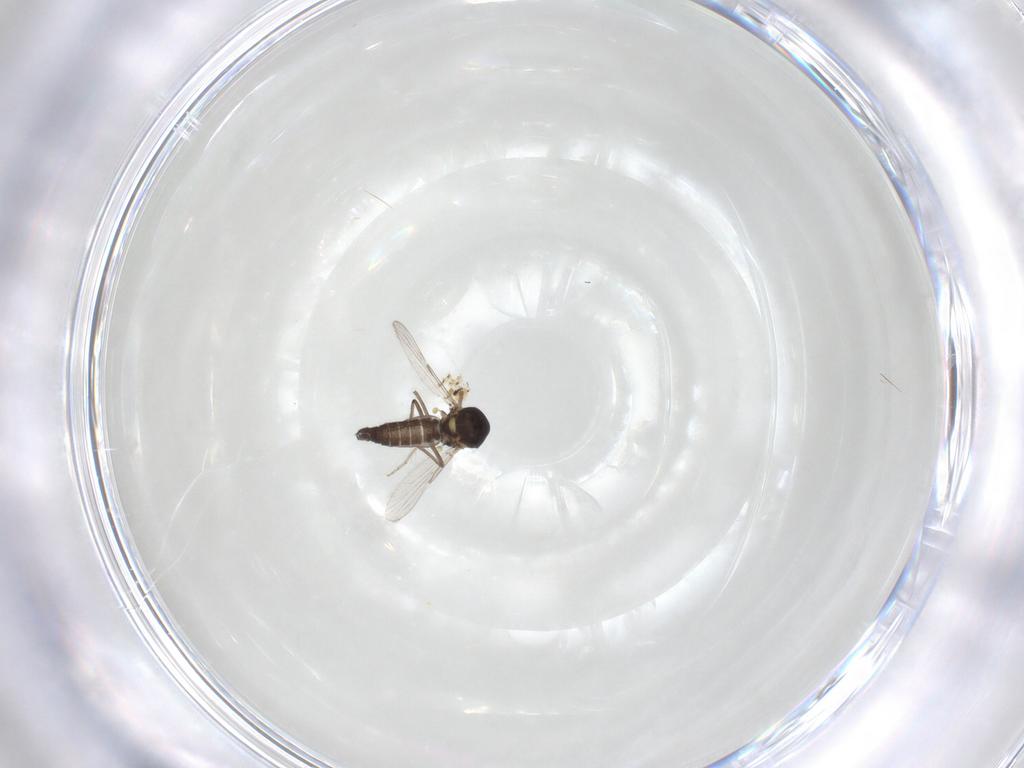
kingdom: Animalia
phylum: Arthropoda
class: Insecta
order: Diptera
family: Ceratopogonidae
